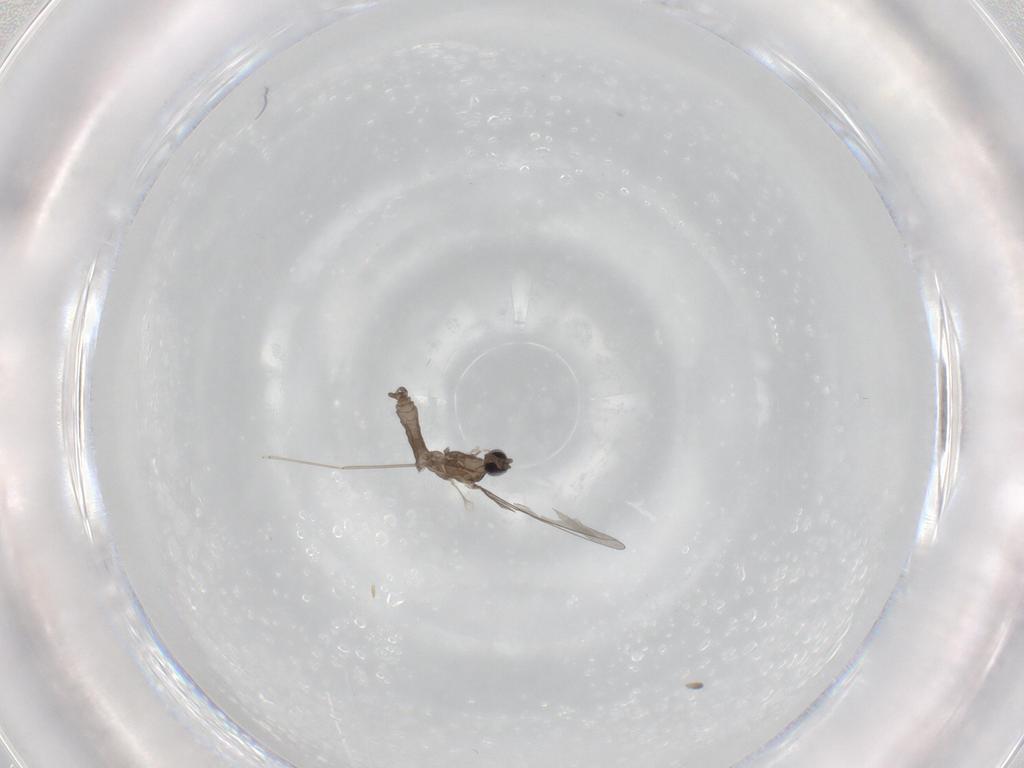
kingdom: Animalia
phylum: Arthropoda
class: Insecta
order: Diptera
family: Cecidomyiidae
